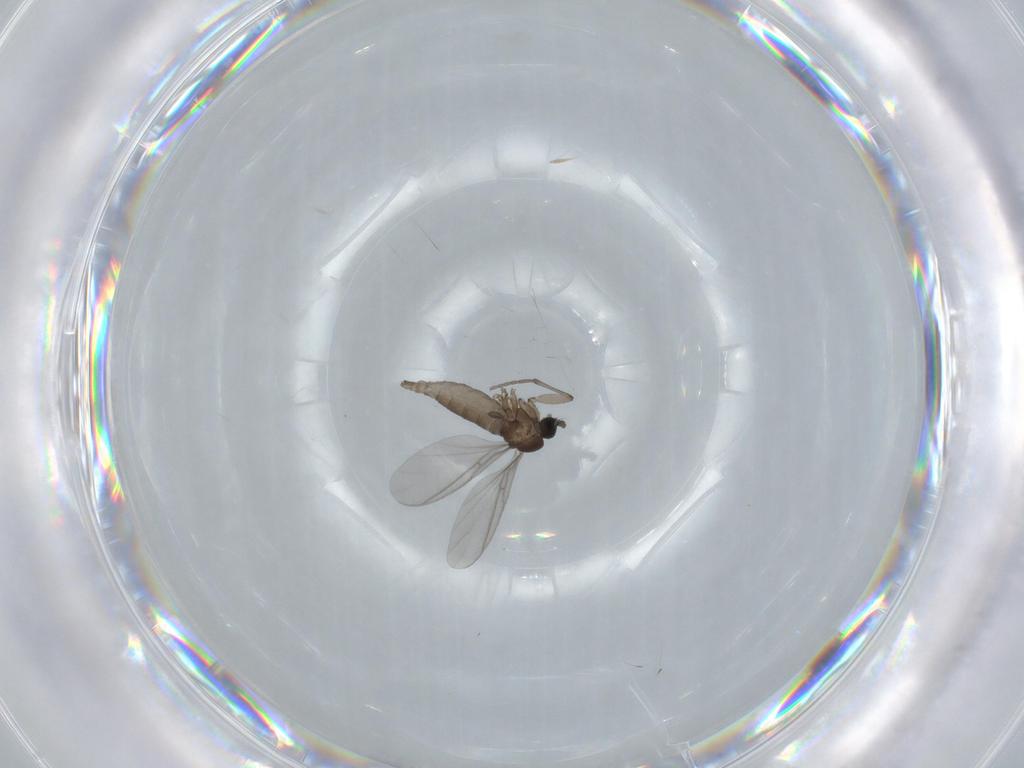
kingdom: Animalia
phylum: Arthropoda
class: Insecta
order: Diptera
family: Sciaridae
